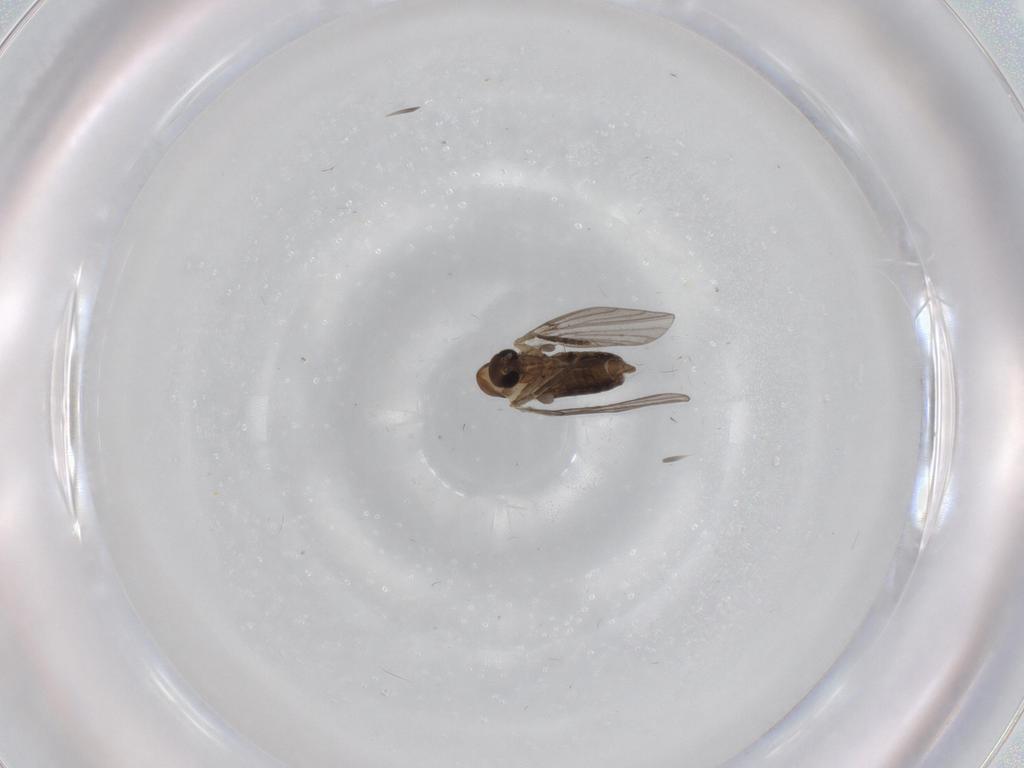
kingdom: Animalia
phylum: Arthropoda
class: Insecta
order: Diptera
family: Psychodidae
